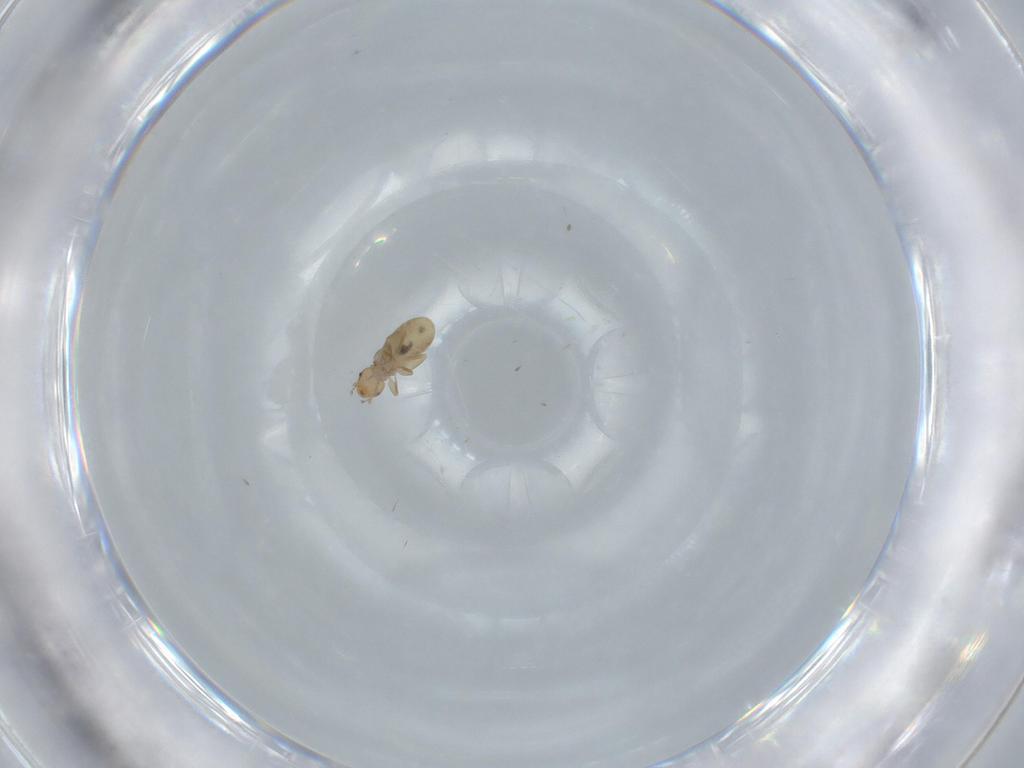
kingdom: Animalia
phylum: Arthropoda
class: Insecta
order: Psocodea
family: Liposcelididae
